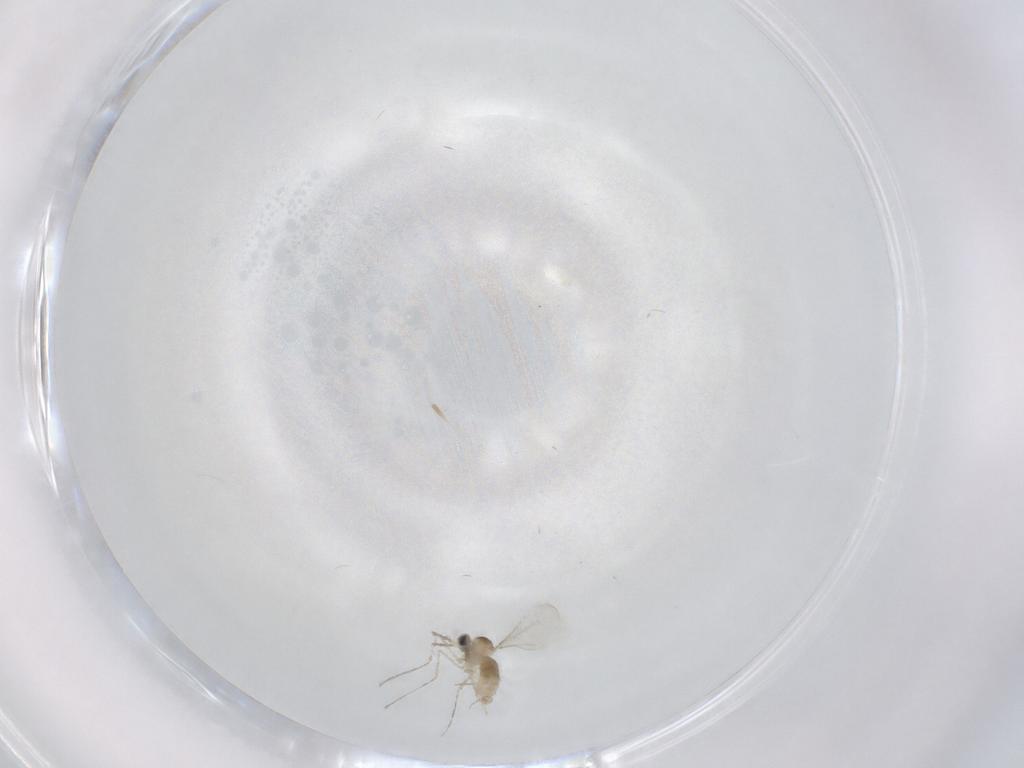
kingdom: Animalia
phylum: Arthropoda
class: Insecta
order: Diptera
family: Cecidomyiidae
